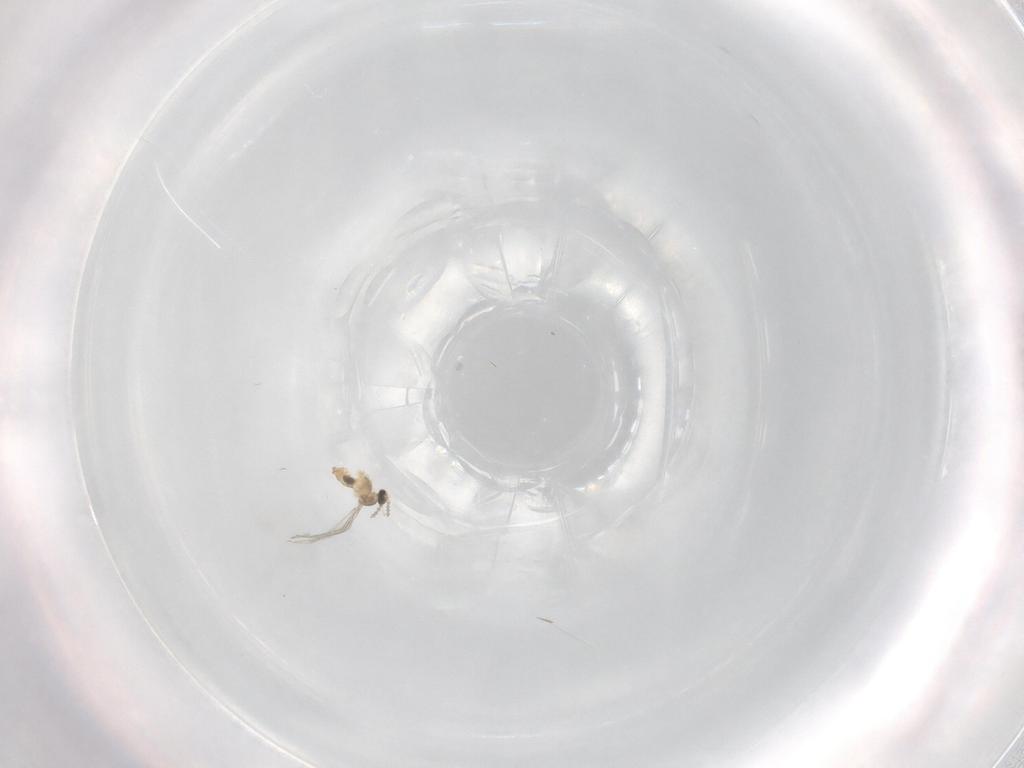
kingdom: Animalia
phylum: Arthropoda
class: Insecta
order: Diptera
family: Cecidomyiidae
